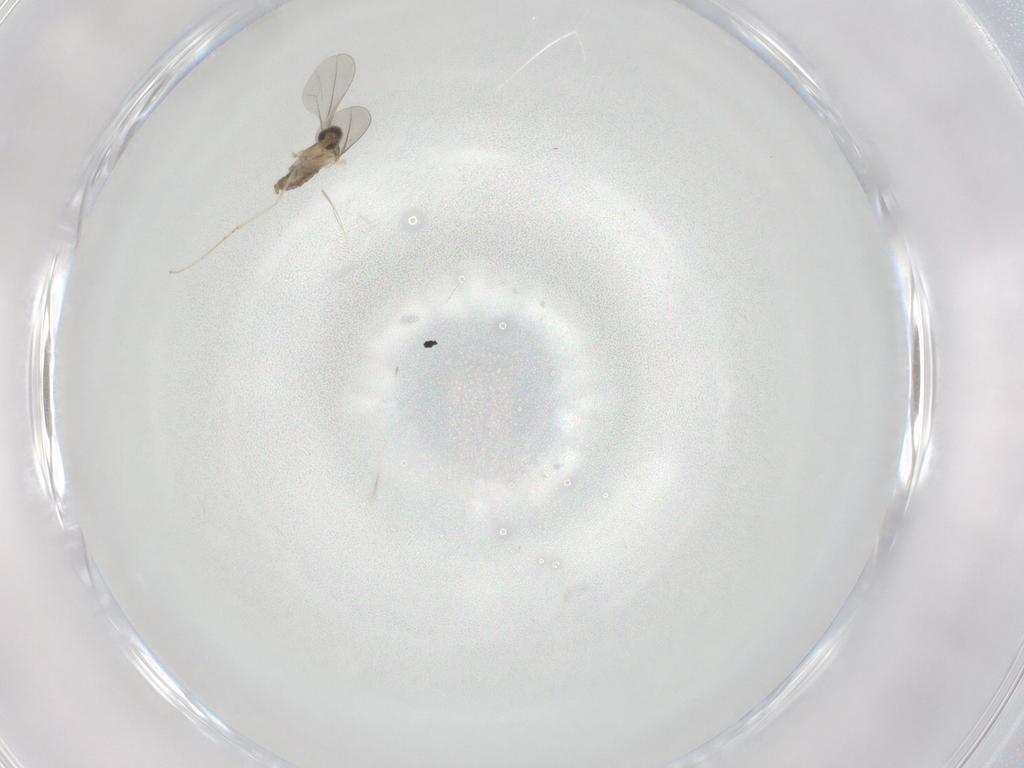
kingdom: Animalia
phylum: Arthropoda
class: Insecta
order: Diptera
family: Cecidomyiidae
